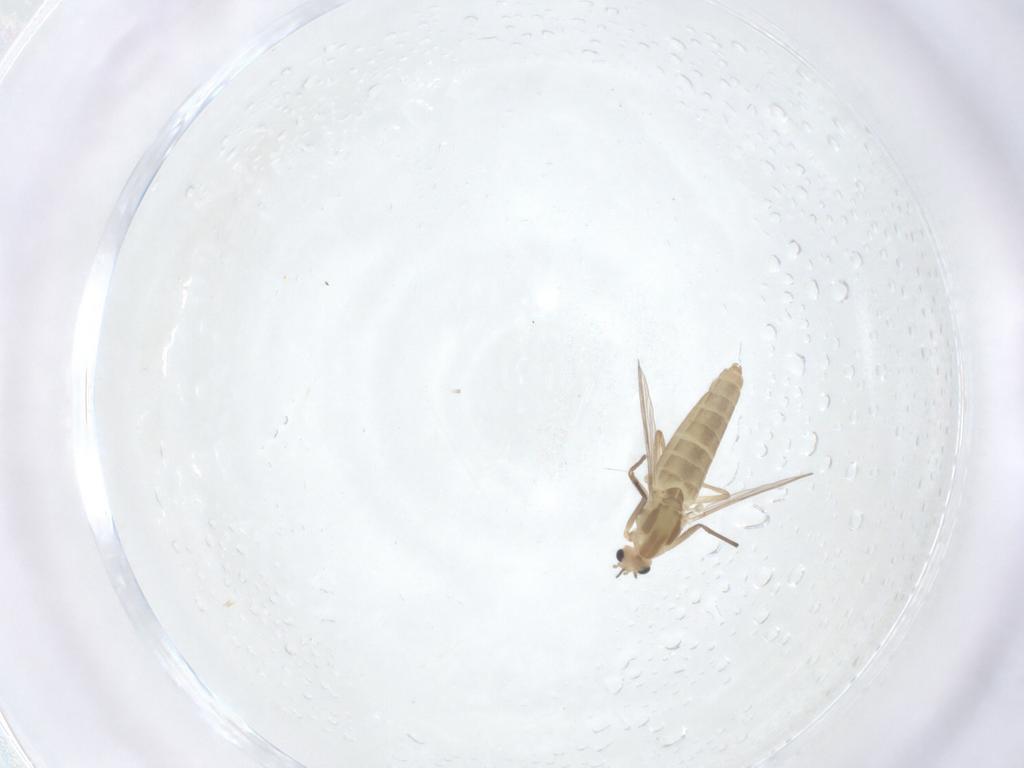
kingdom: Animalia
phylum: Arthropoda
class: Insecta
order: Diptera
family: Chironomidae
